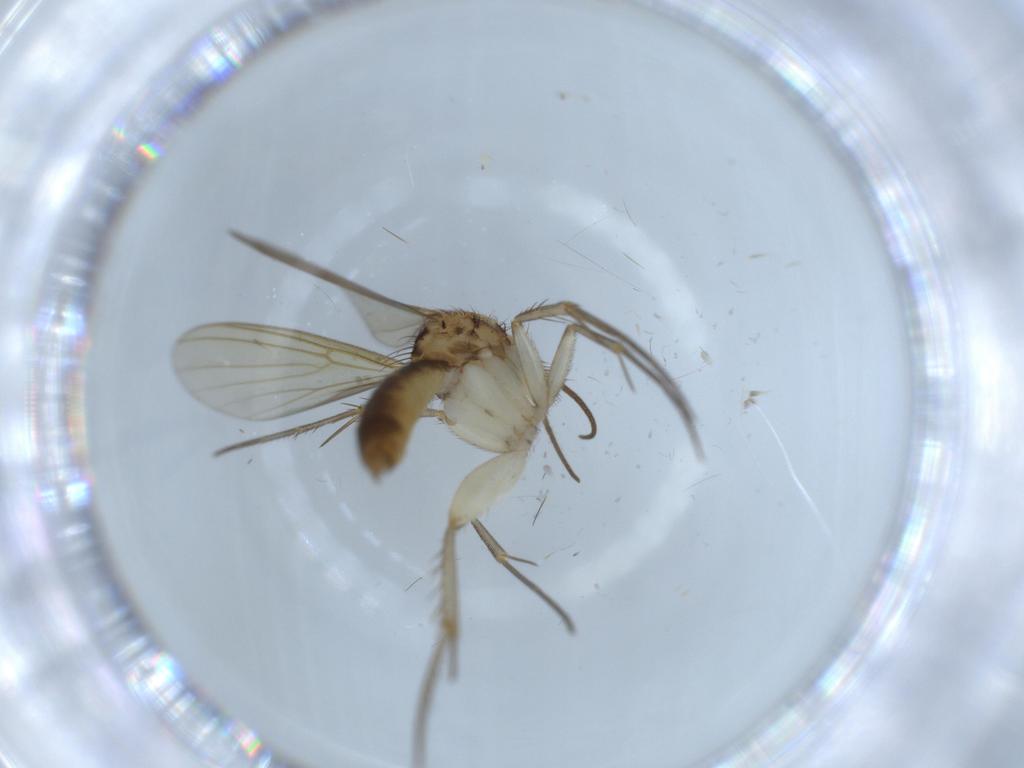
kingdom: Animalia
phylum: Arthropoda
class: Insecta
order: Diptera
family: Mycetophilidae
